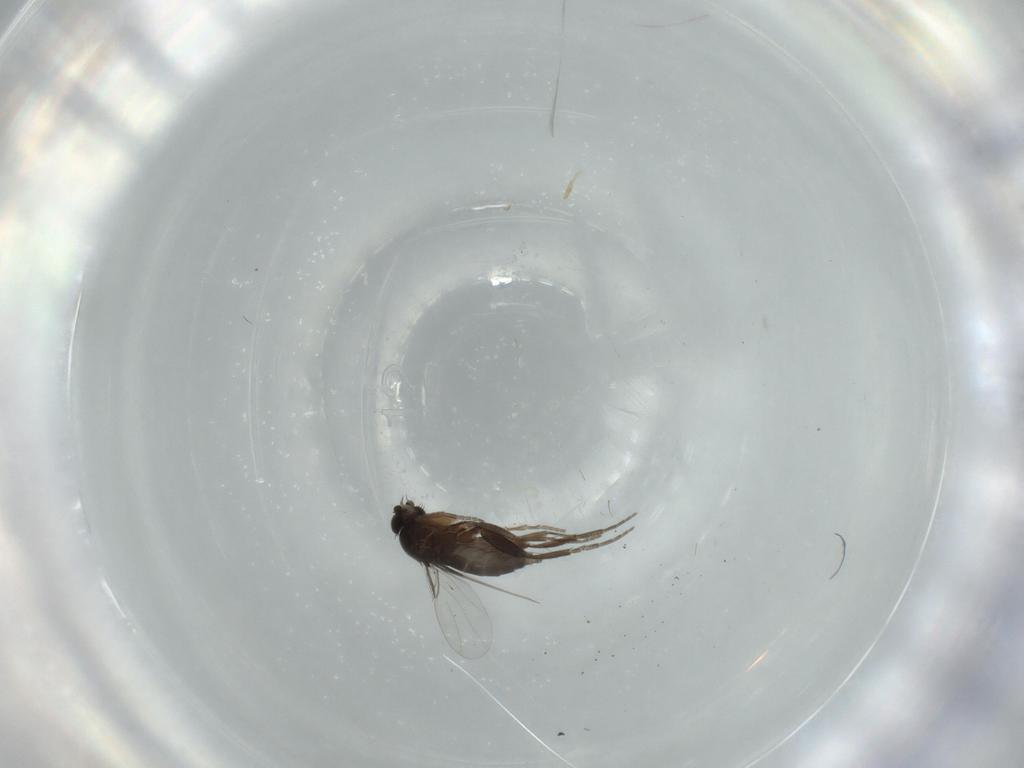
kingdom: Animalia
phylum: Arthropoda
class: Insecta
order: Diptera
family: Phoridae
